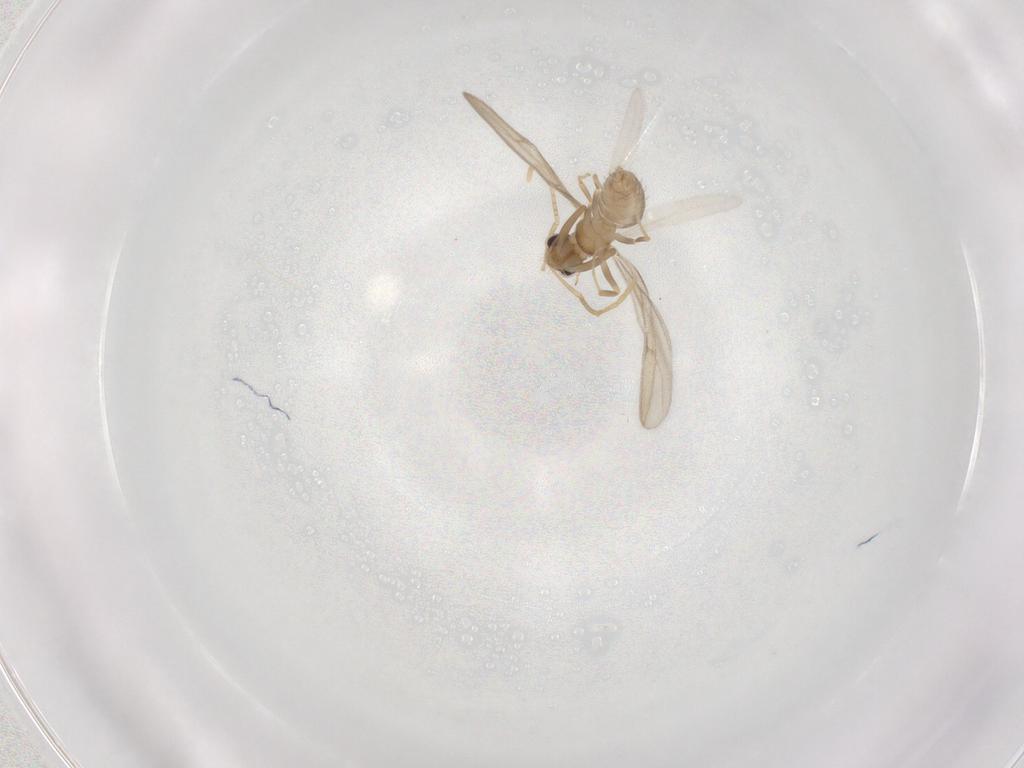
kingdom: Animalia
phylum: Arthropoda
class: Insecta
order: Hymenoptera
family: Formicidae
